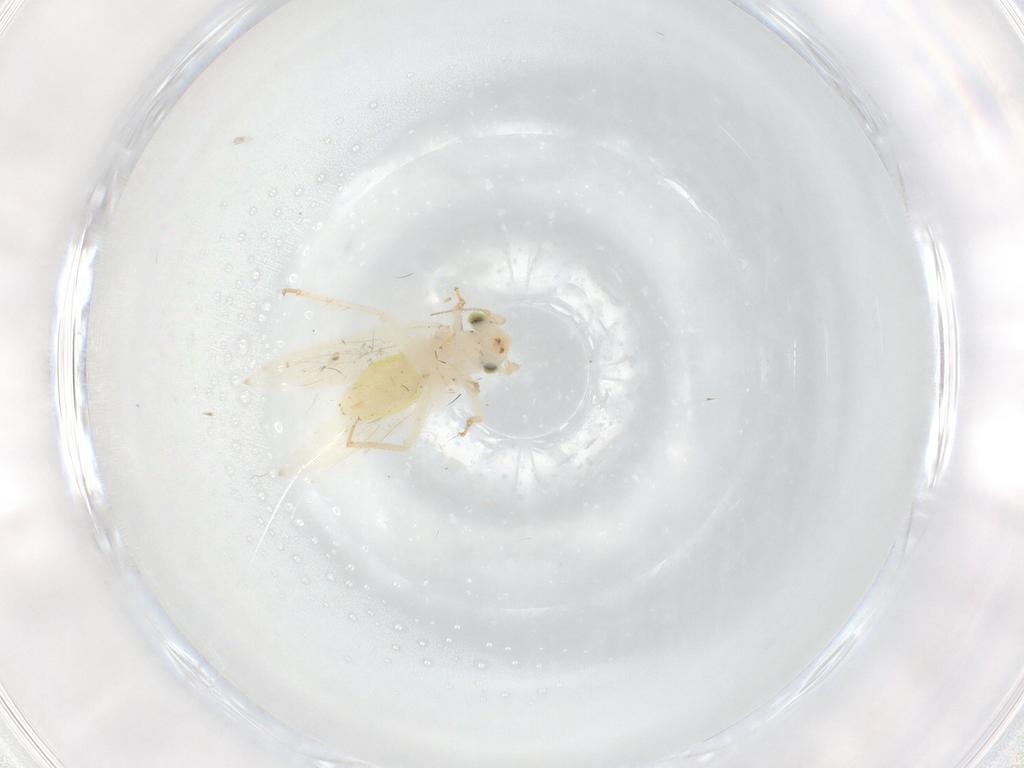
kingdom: Animalia
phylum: Arthropoda
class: Insecta
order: Psocodea
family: Lepidopsocidae
